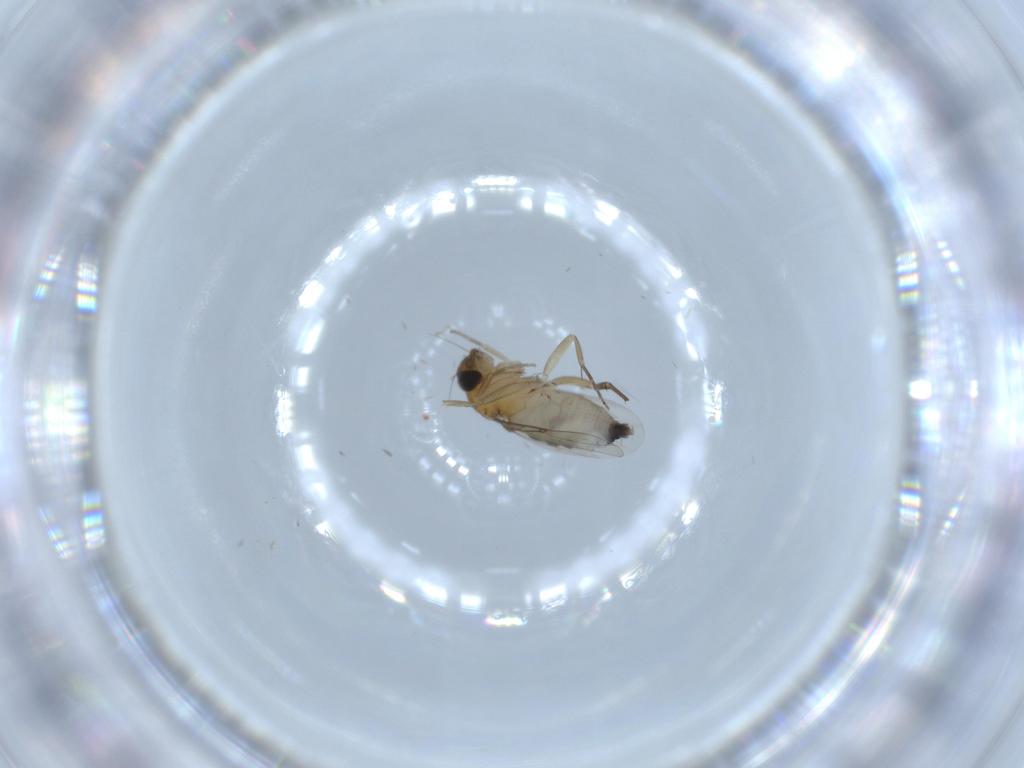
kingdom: Animalia
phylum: Arthropoda
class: Insecta
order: Diptera
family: Phoridae
